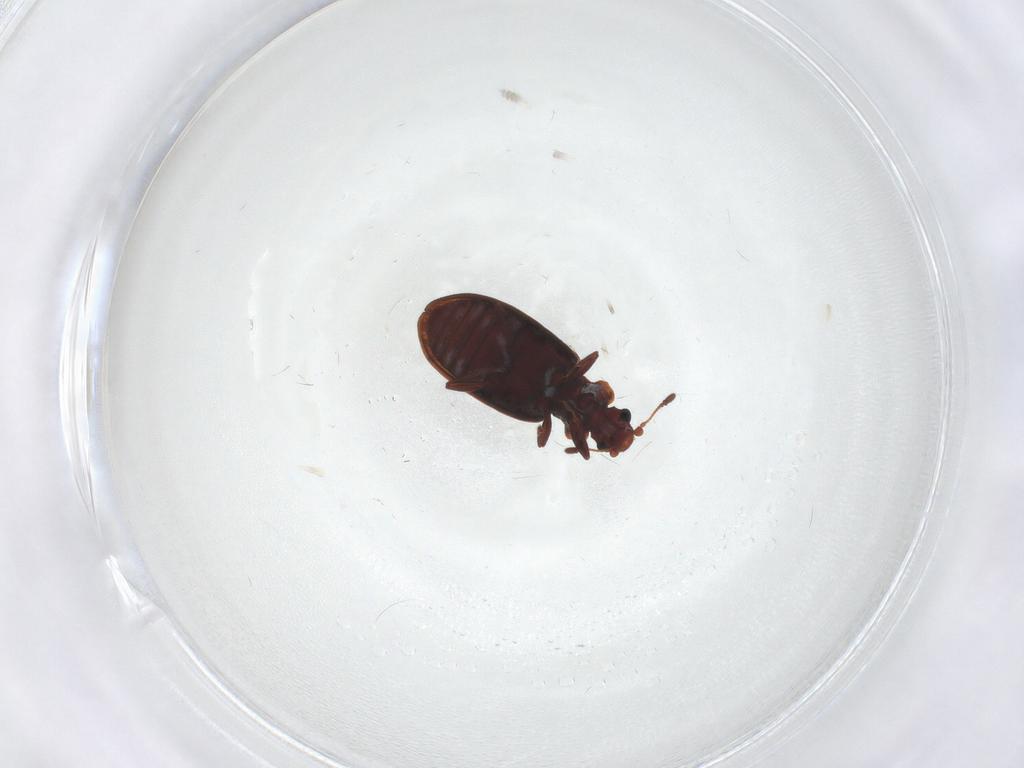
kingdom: Animalia
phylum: Arthropoda
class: Insecta
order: Coleoptera
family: Latridiidae
